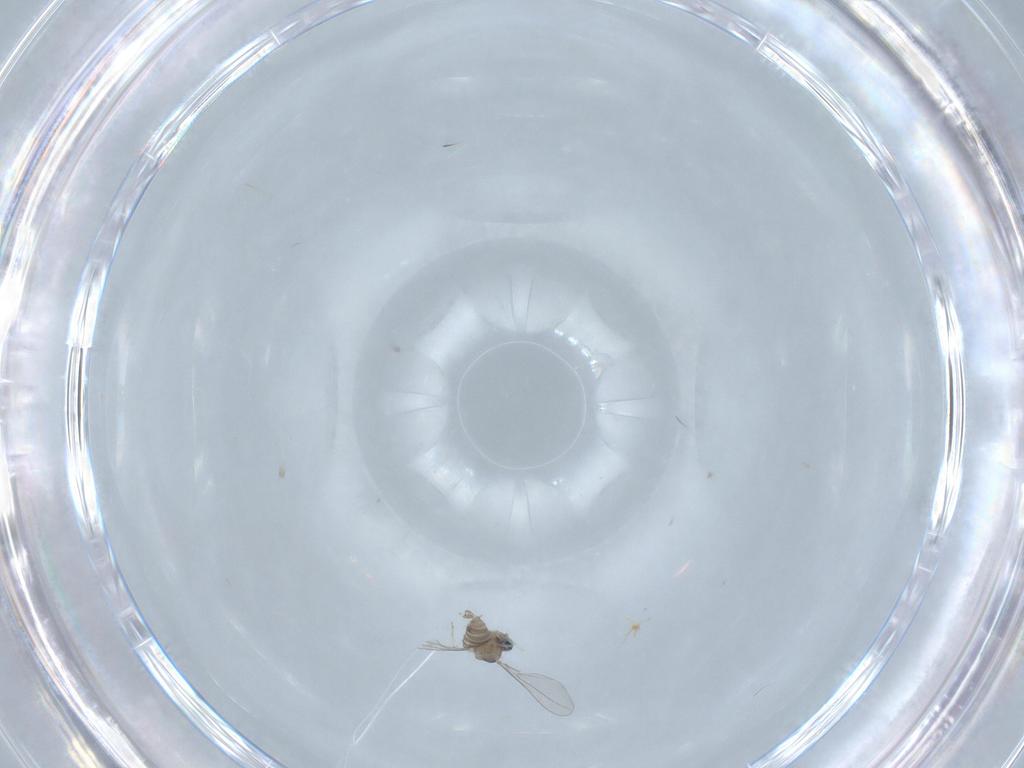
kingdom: Animalia
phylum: Arthropoda
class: Insecta
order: Diptera
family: Cecidomyiidae
